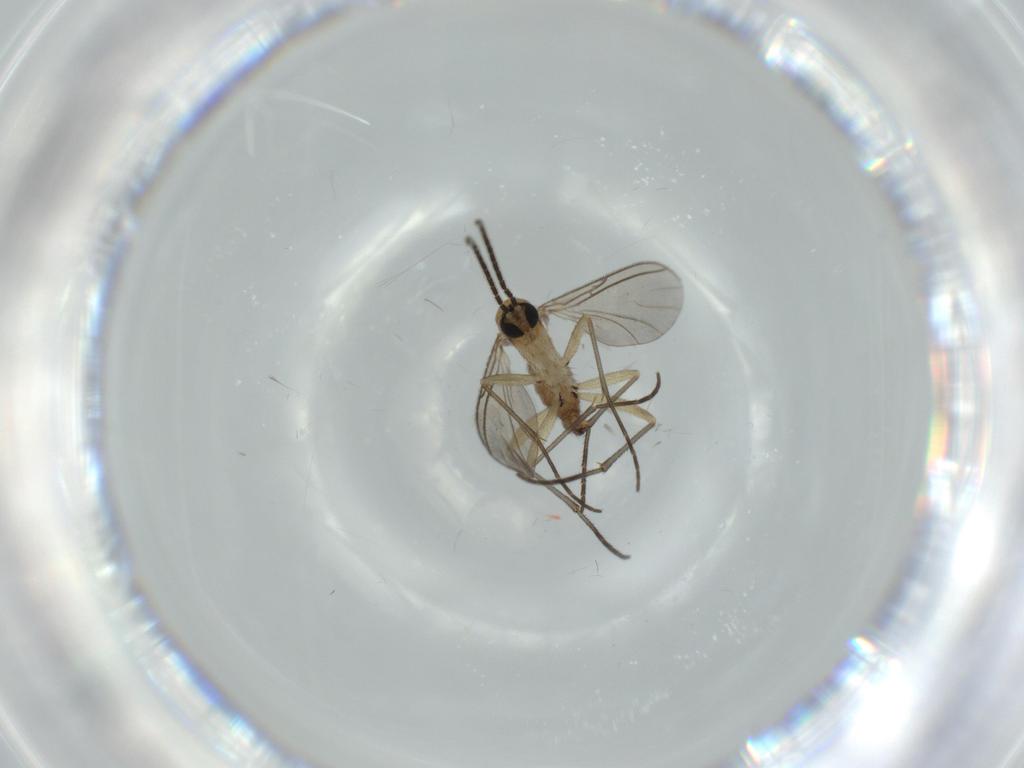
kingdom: Animalia
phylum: Arthropoda
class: Insecta
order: Diptera
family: Sciaridae
